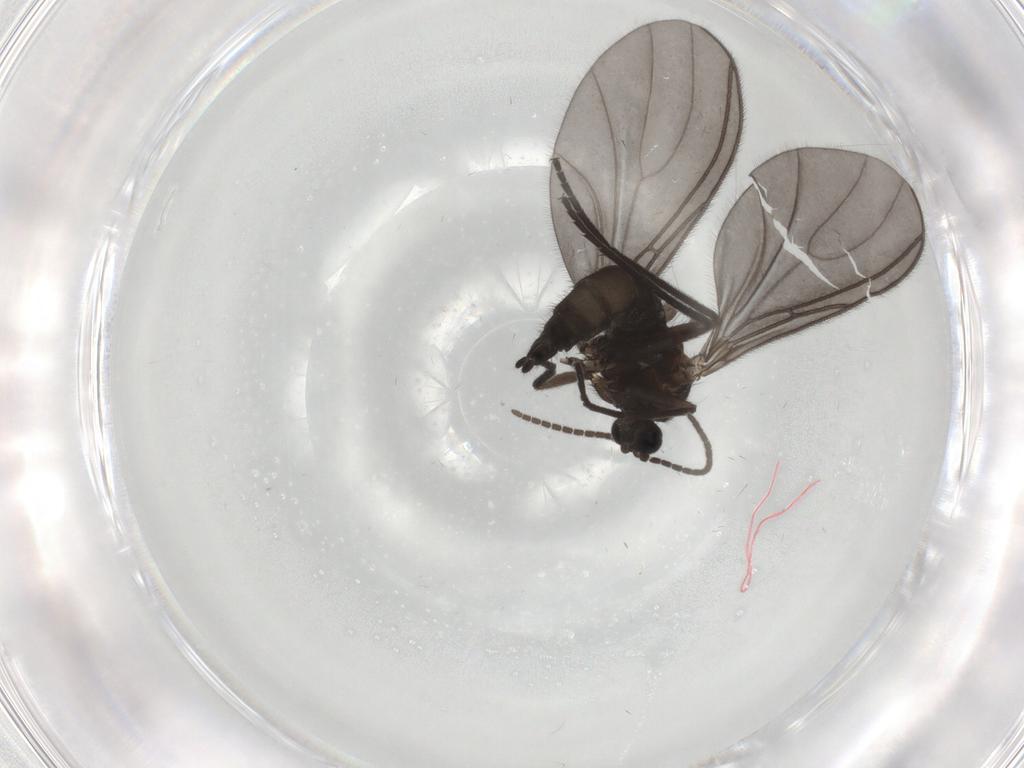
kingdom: Animalia
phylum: Arthropoda
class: Insecta
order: Diptera
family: Sciaridae
